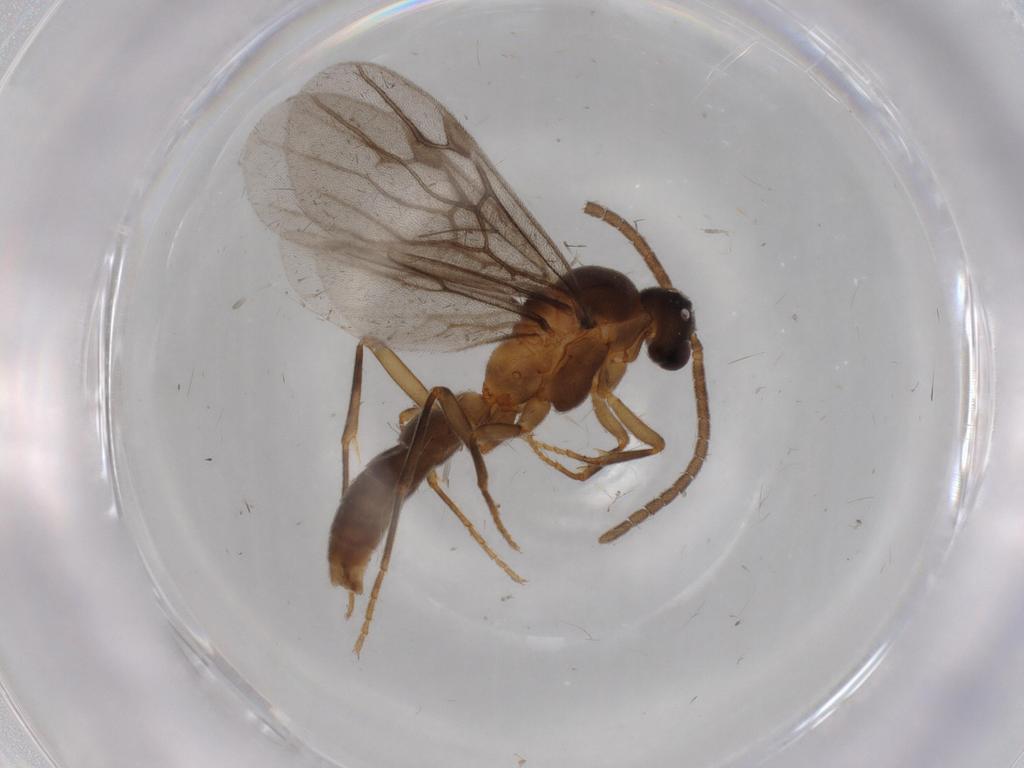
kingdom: Animalia
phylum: Arthropoda
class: Insecta
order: Hymenoptera
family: Formicidae
